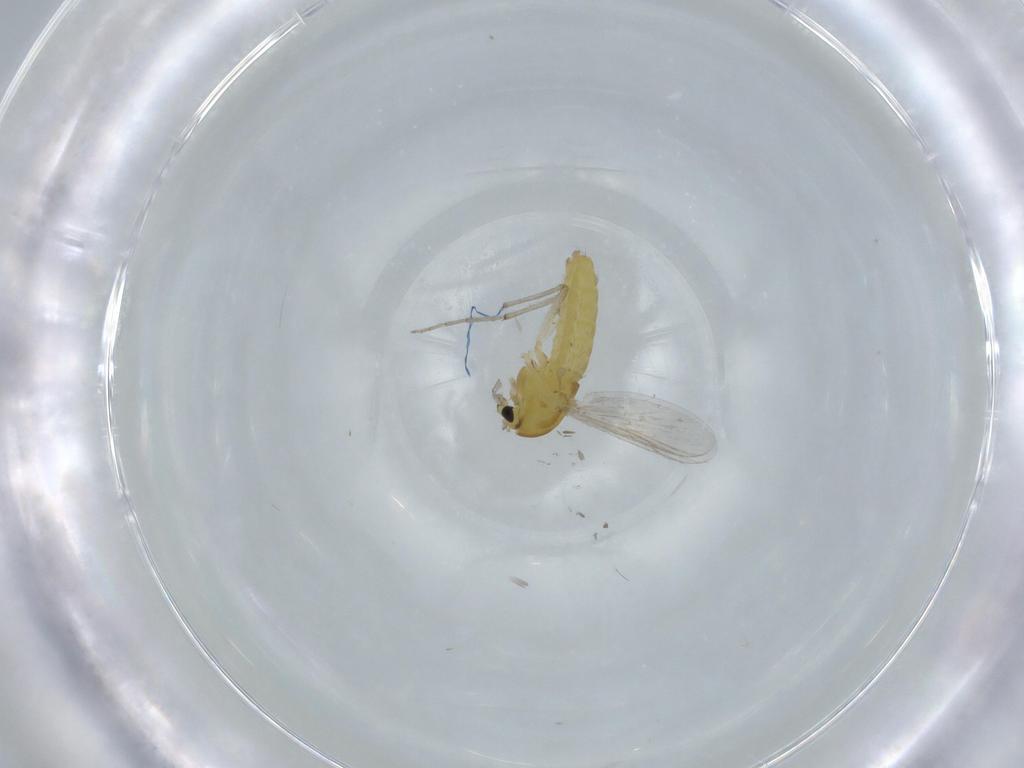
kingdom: Animalia
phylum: Arthropoda
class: Insecta
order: Diptera
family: Chironomidae
